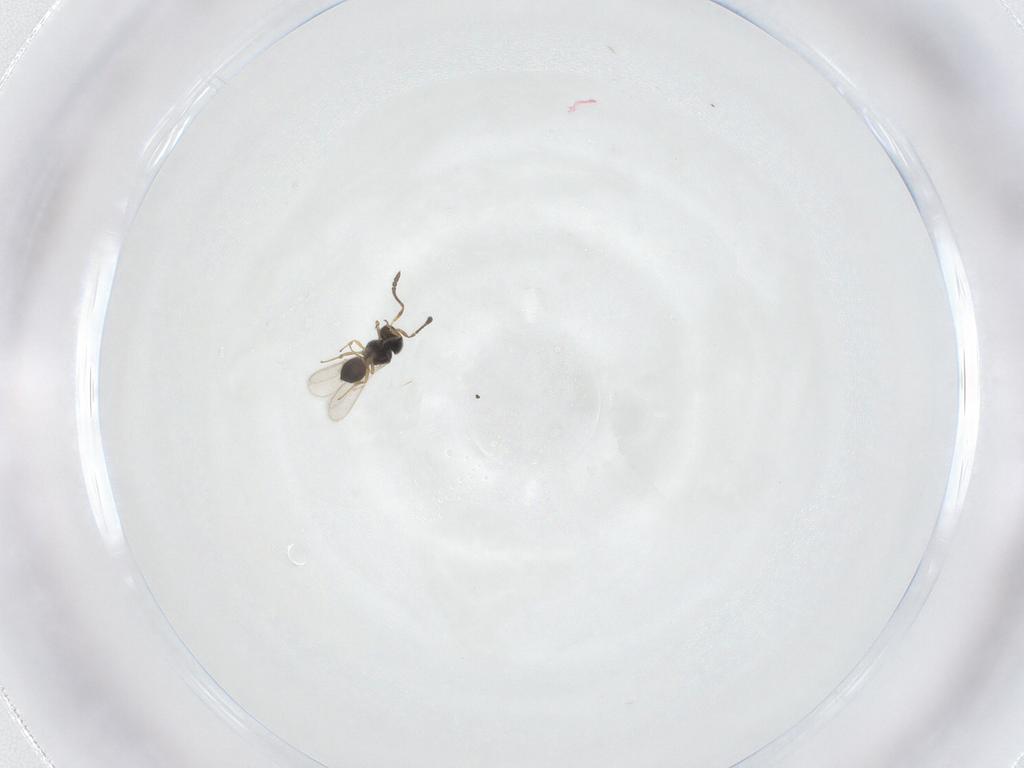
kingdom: Animalia
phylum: Arthropoda
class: Insecta
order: Hymenoptera
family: Scelionidae
